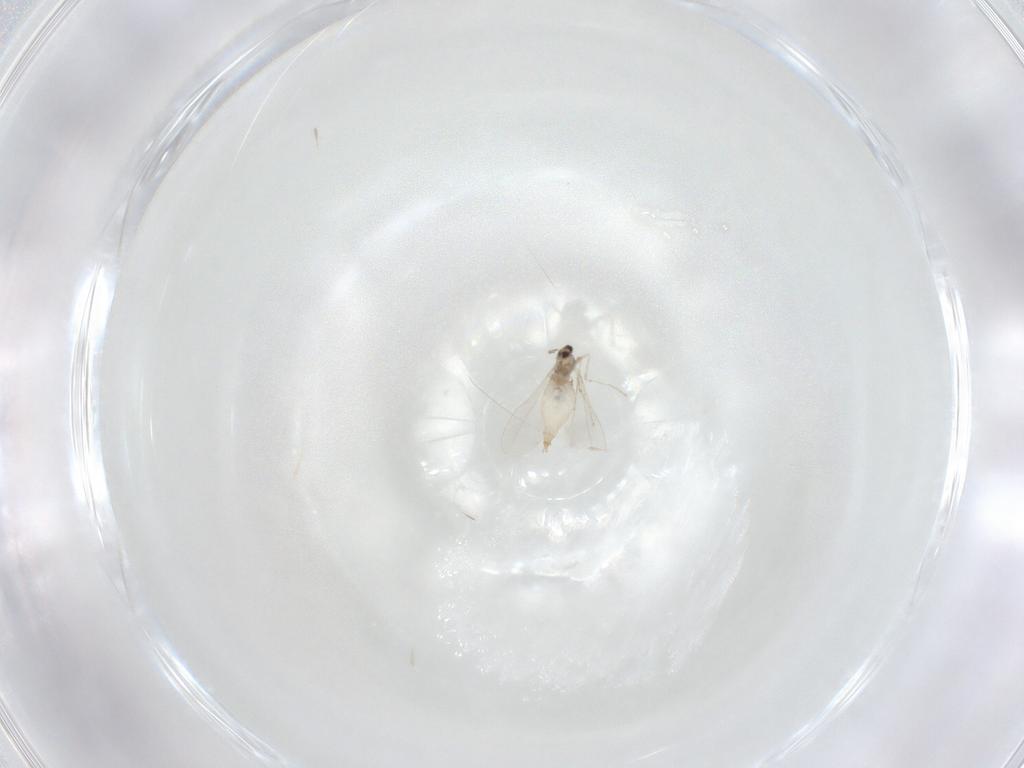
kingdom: Animalia
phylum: Arthropoda
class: Insecta
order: Diptera
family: Cecidomyiidae
